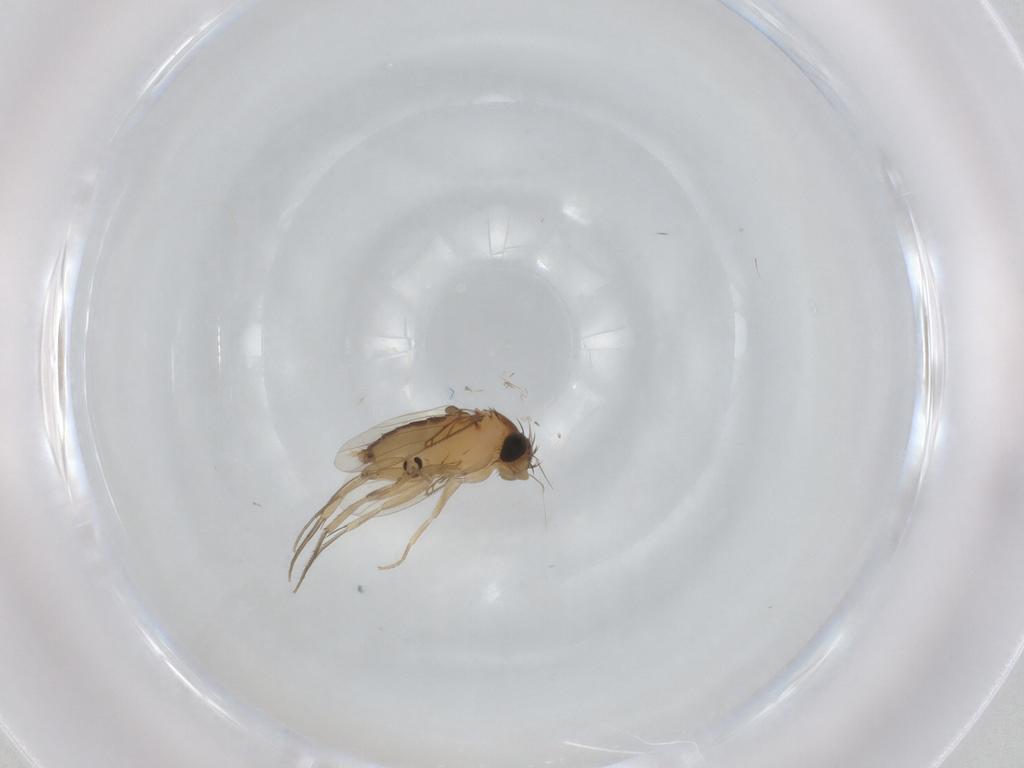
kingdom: Animalia
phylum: Arthropoda
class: Insecta
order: Diptera
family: Phoridae
